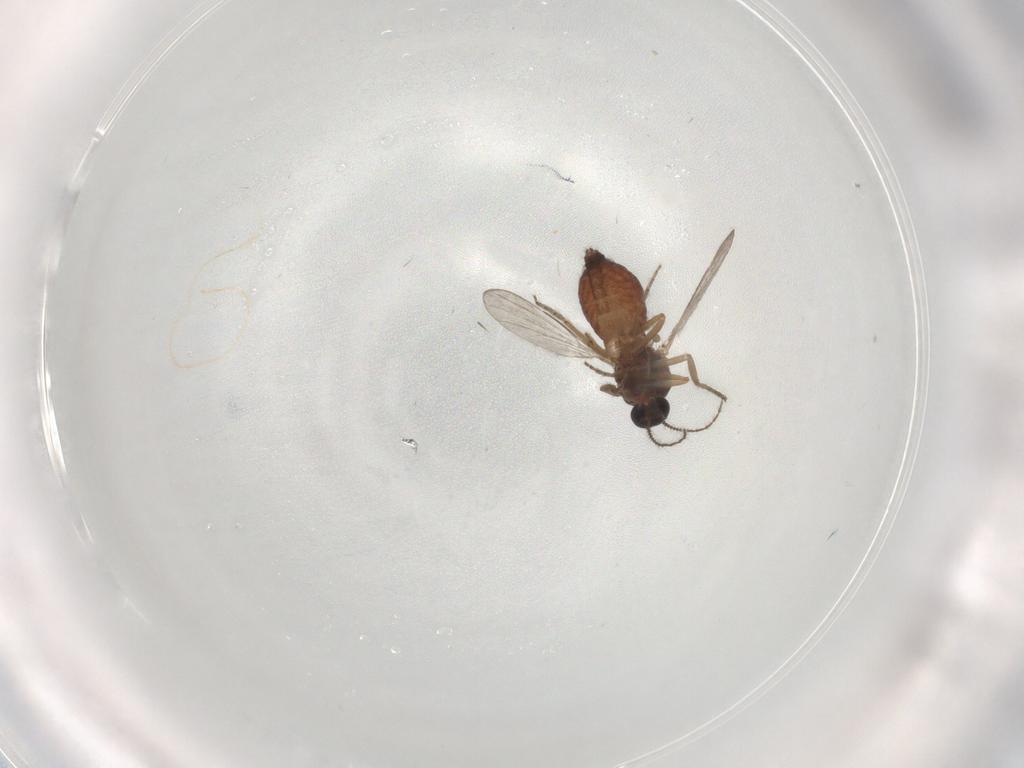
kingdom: Animalia
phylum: Arthropoda
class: Insecta
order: Diptera
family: Ceratopogonidae
